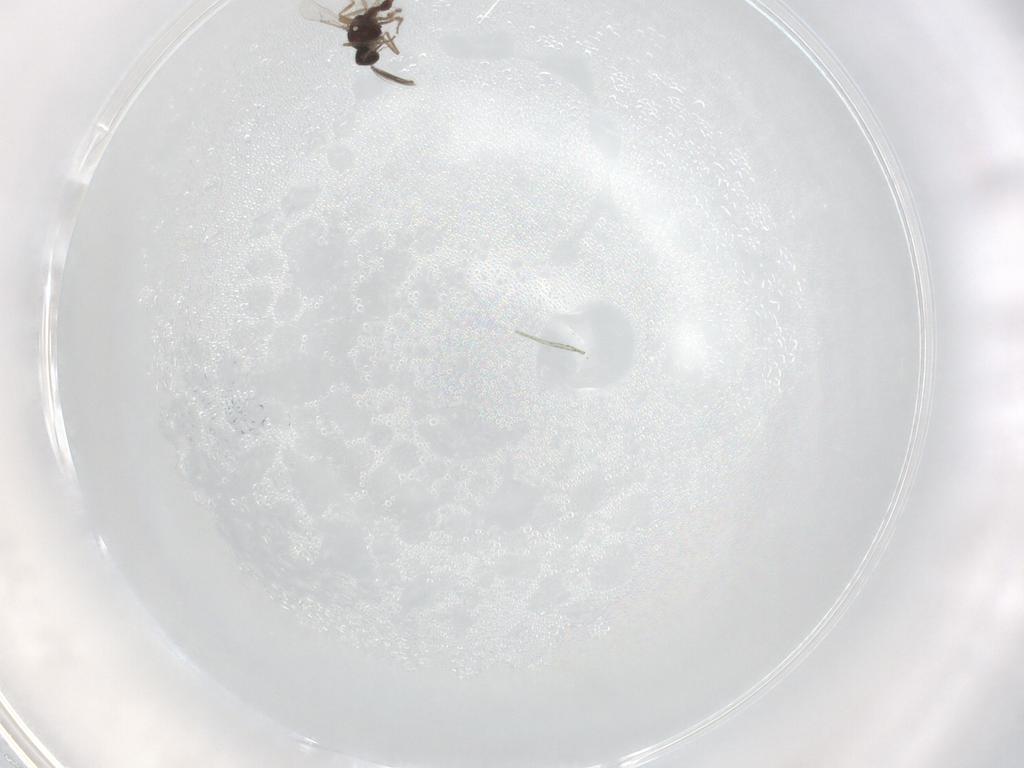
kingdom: Animalia
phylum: Arthropoda
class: Insecta
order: Diptera
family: Ceratopogonidae
